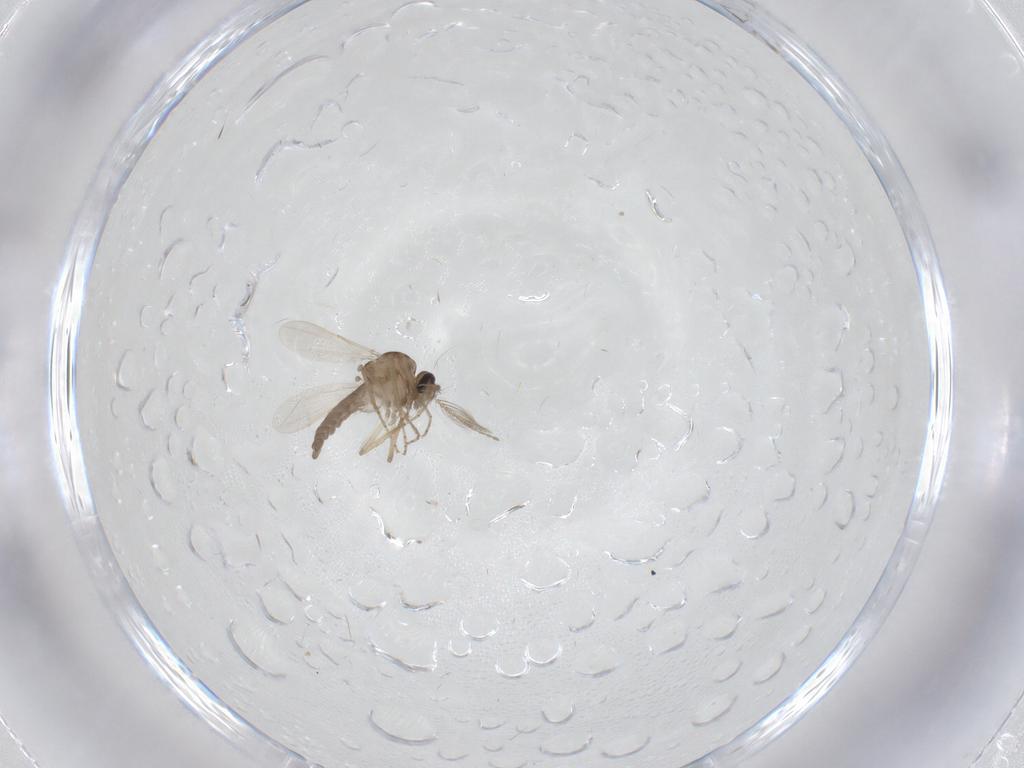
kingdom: Animalia
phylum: Arthropoda
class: Insecta
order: Diptera
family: Ceratopogonidae
